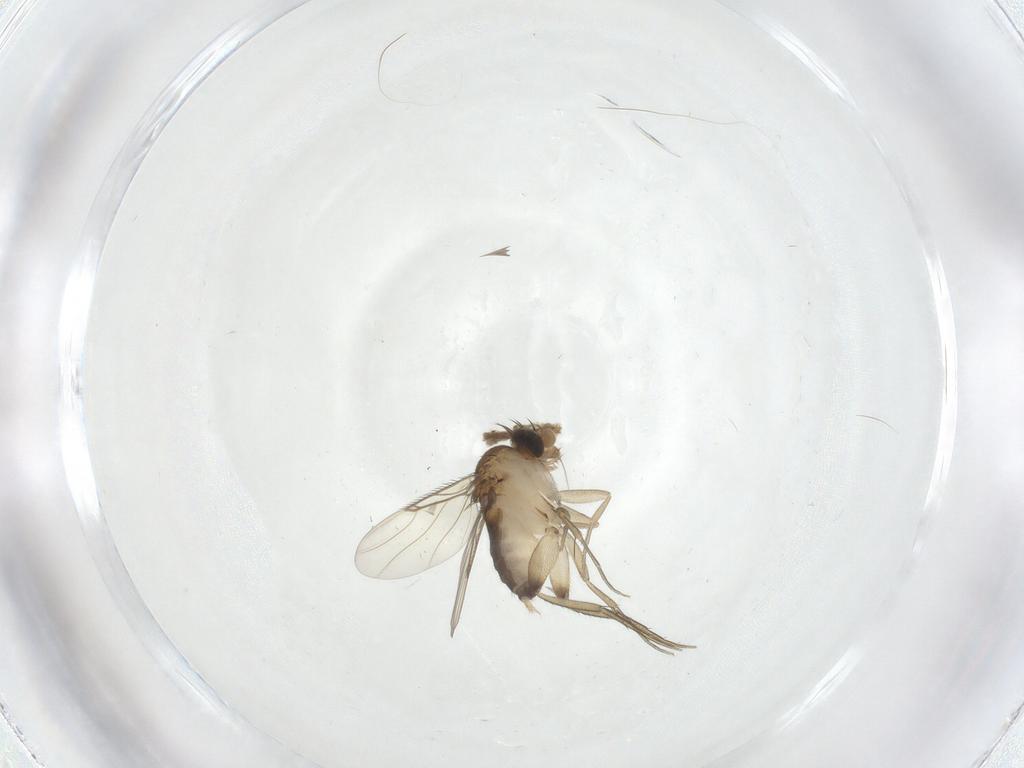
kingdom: Animalia
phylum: Arthropoda
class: Insecta
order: Diptera
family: Phoridae
